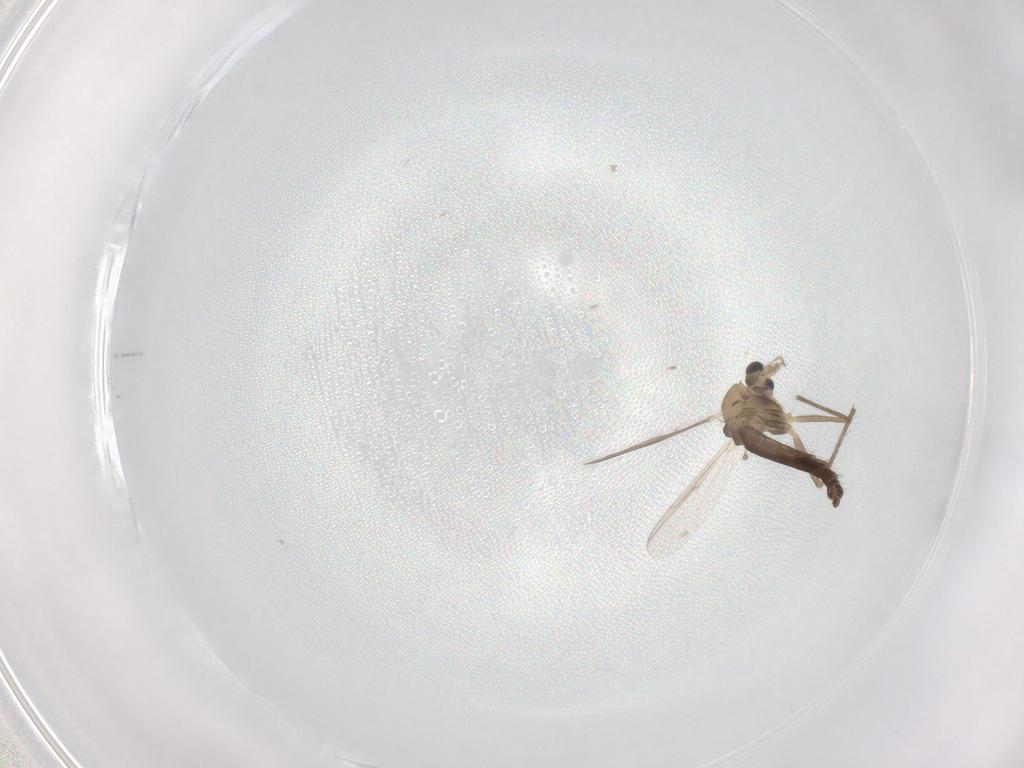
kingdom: Animalia
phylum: Arthropoda
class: Insecta
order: Diptera
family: Chironomidae
